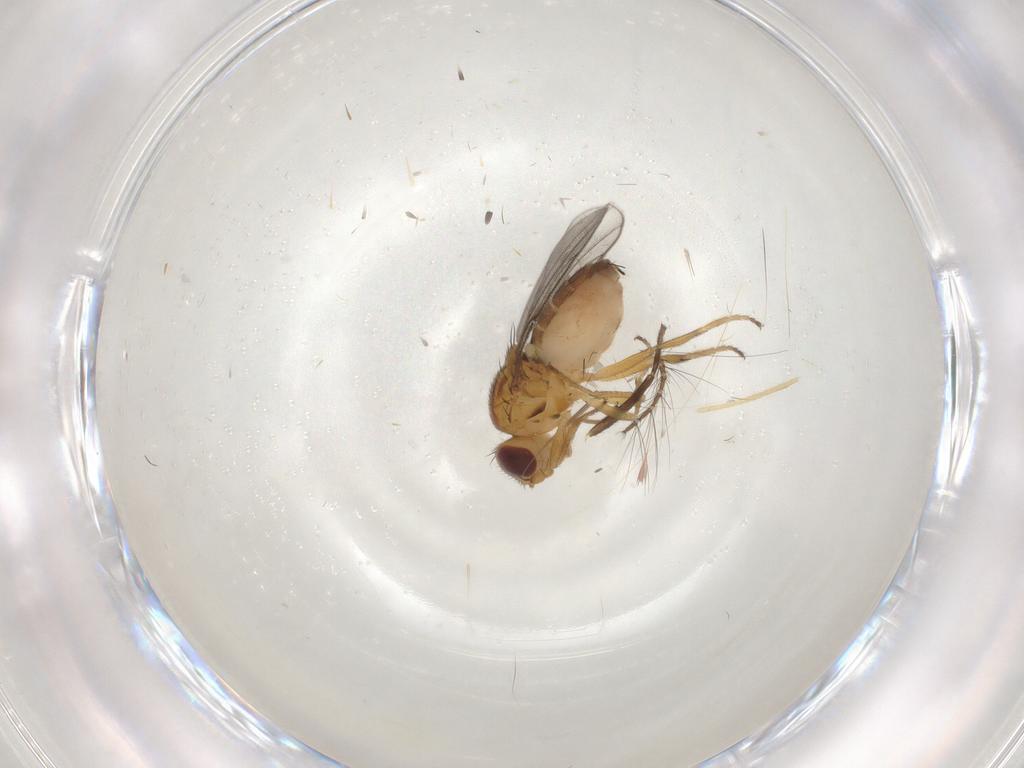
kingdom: Animalia
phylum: Arthropoda
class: Insecta
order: Diptera
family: Chloropidae
